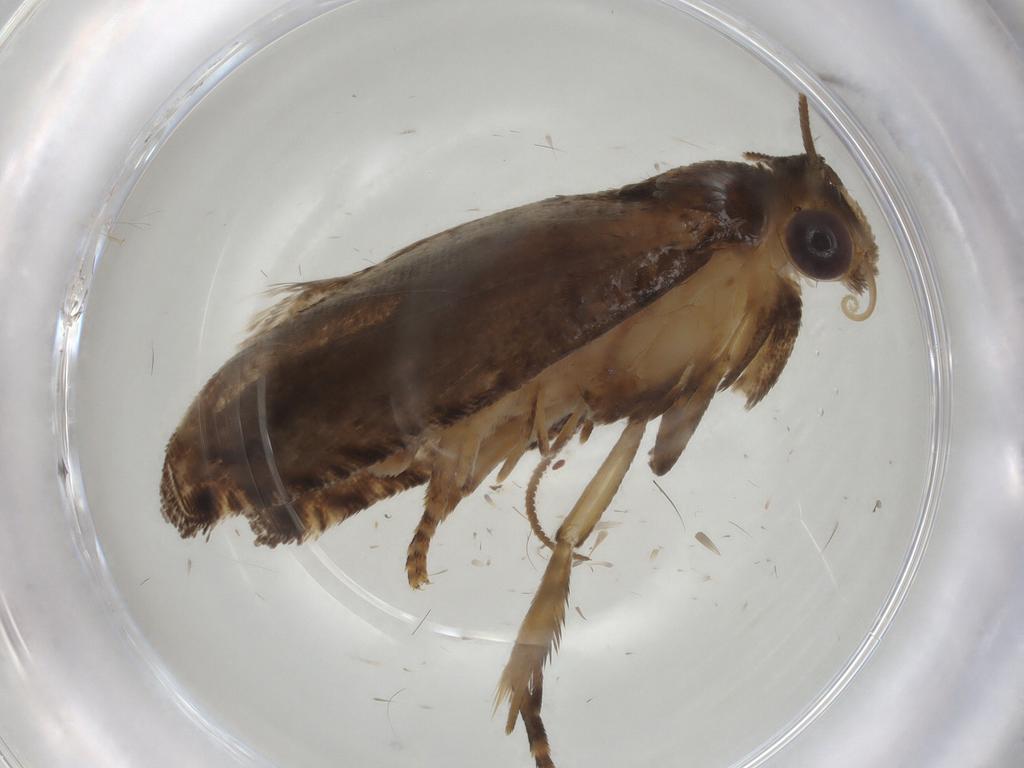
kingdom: Animalia
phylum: Arthropoda
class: Insecta
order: Lepidoptera
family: Tortricidae
